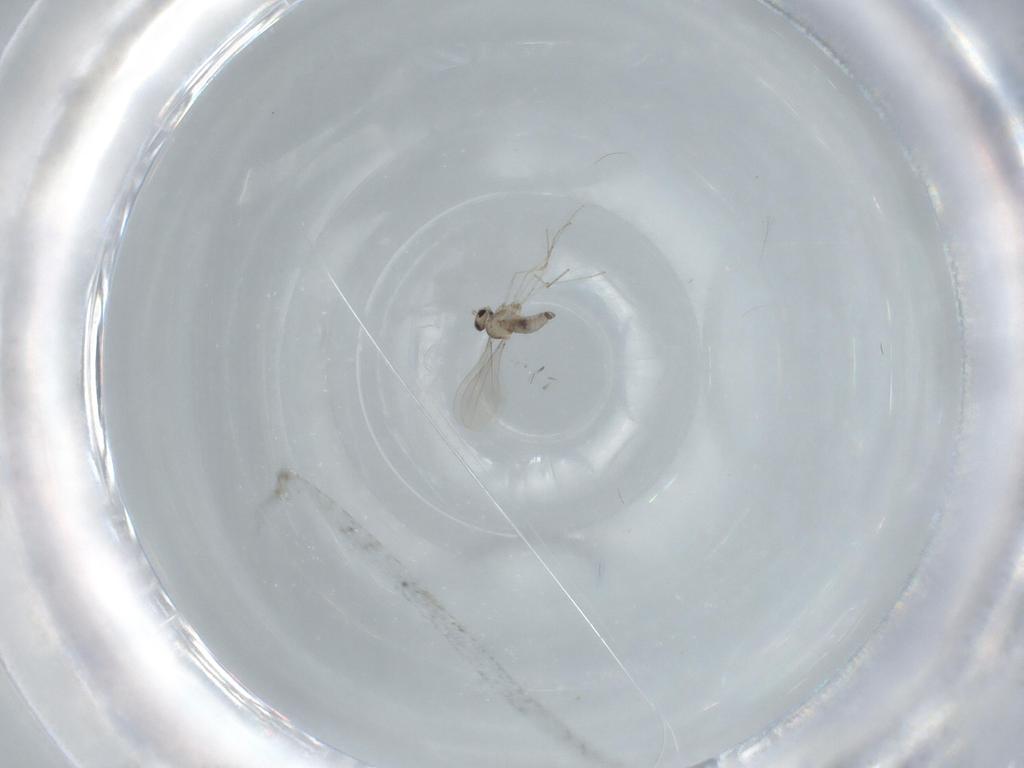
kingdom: Animalia
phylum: Arthropoda
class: Insecta
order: Diptera
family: Cecidomyiidae
